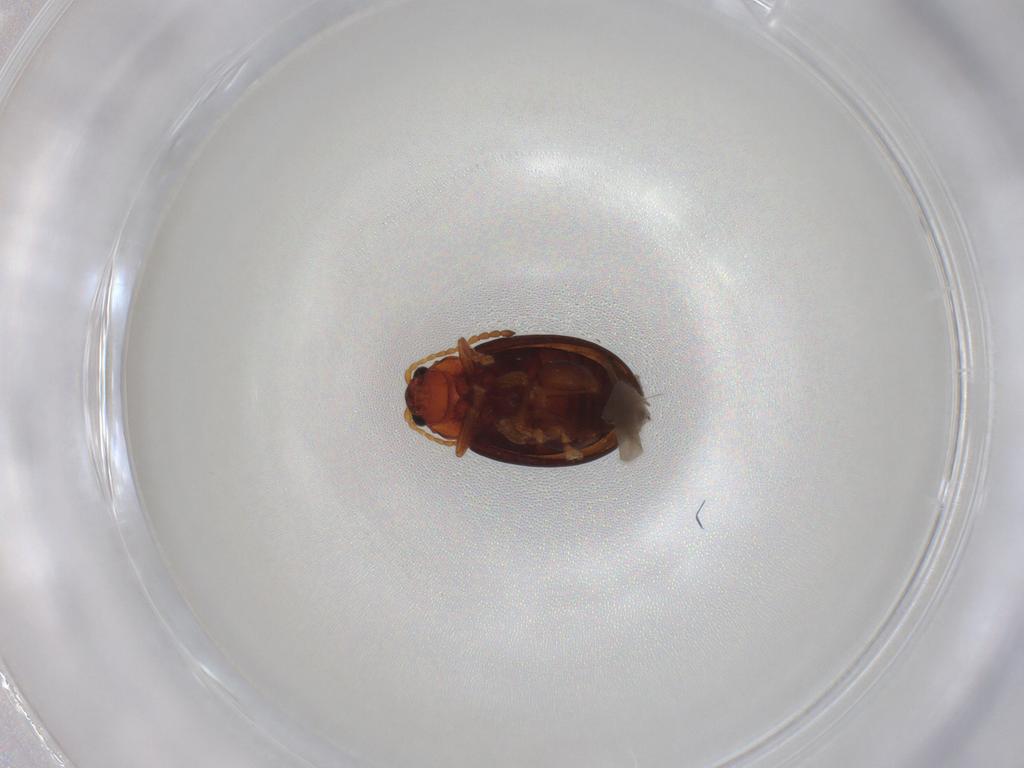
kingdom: Animalia
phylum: Arthropoda
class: Insecta
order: Coleoptera
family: Chrysomelidae
